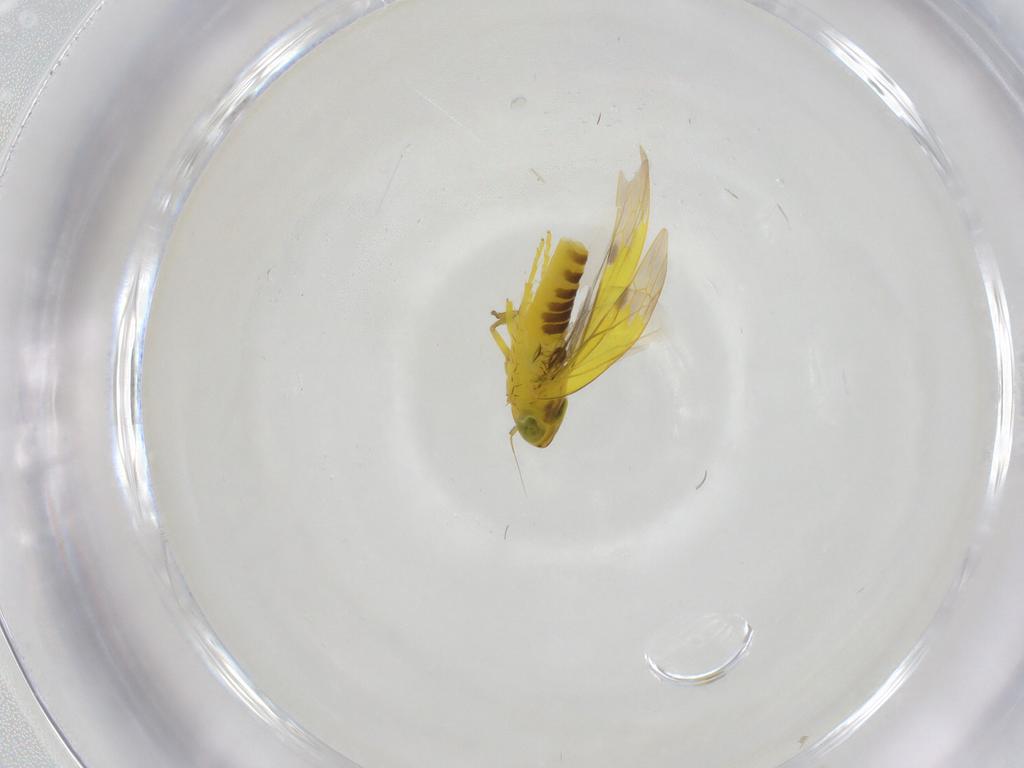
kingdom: Animalia
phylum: Arthropoda
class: Insecta
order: Hemiptera
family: Cicadellidae
